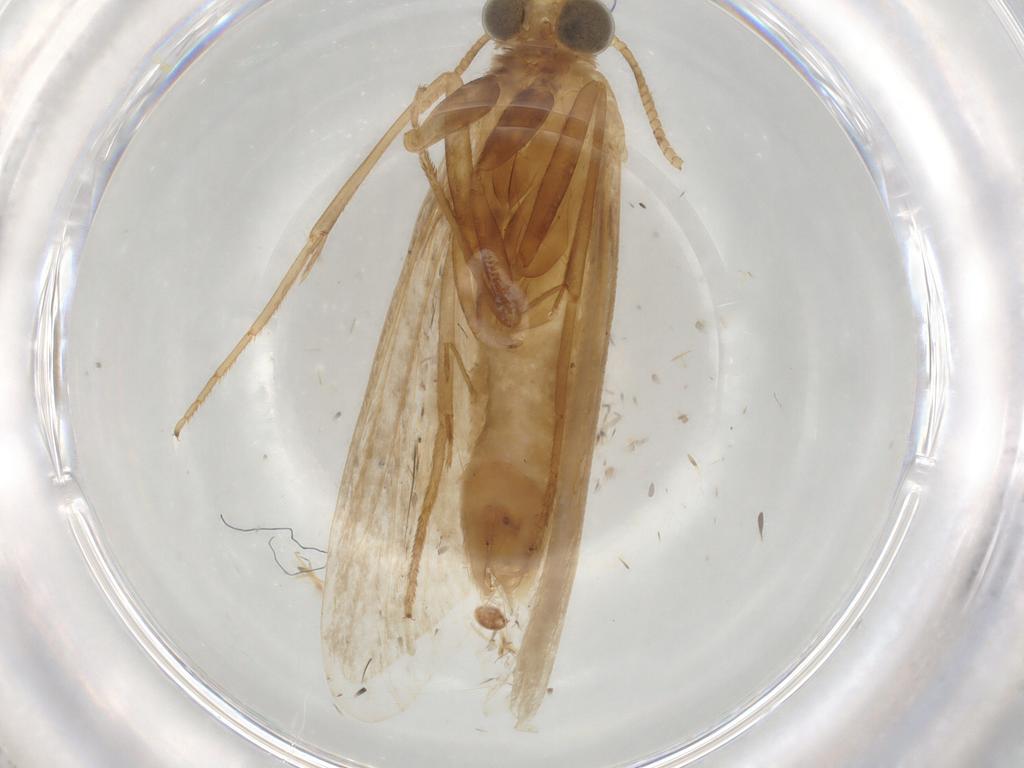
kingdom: Animalia
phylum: Arthropoda
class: Insecta
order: Lepidoptera
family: Pyralidae
